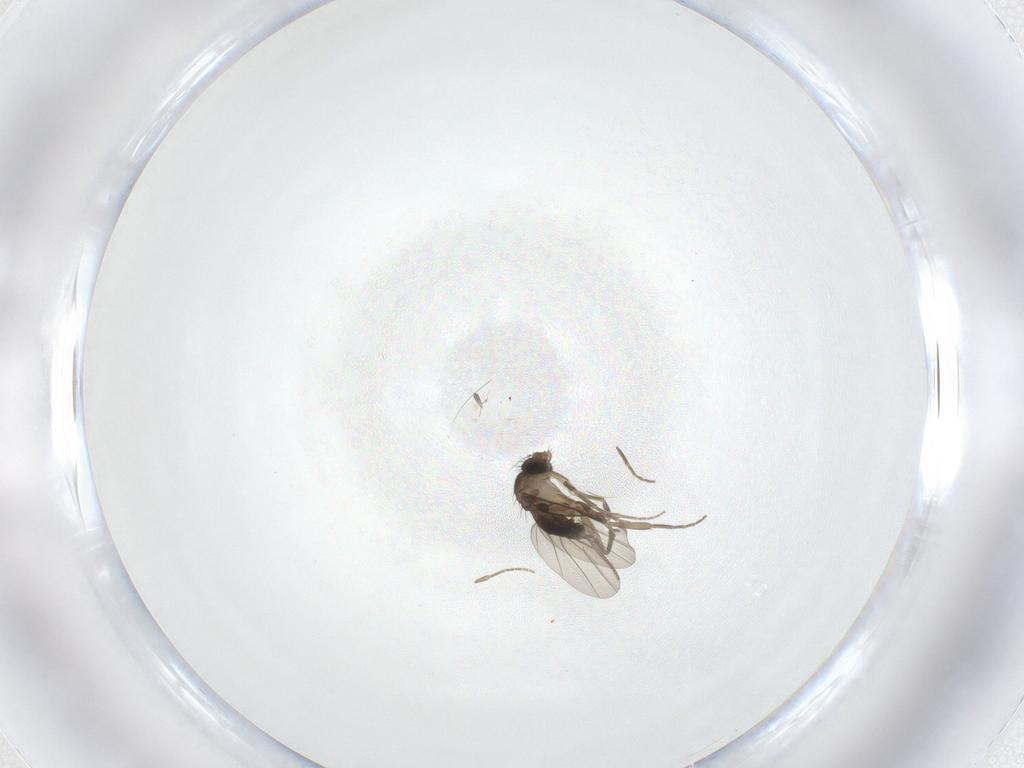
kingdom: Animalia
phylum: Arthropoda
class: Insecta
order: Diptera
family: Phoridae
